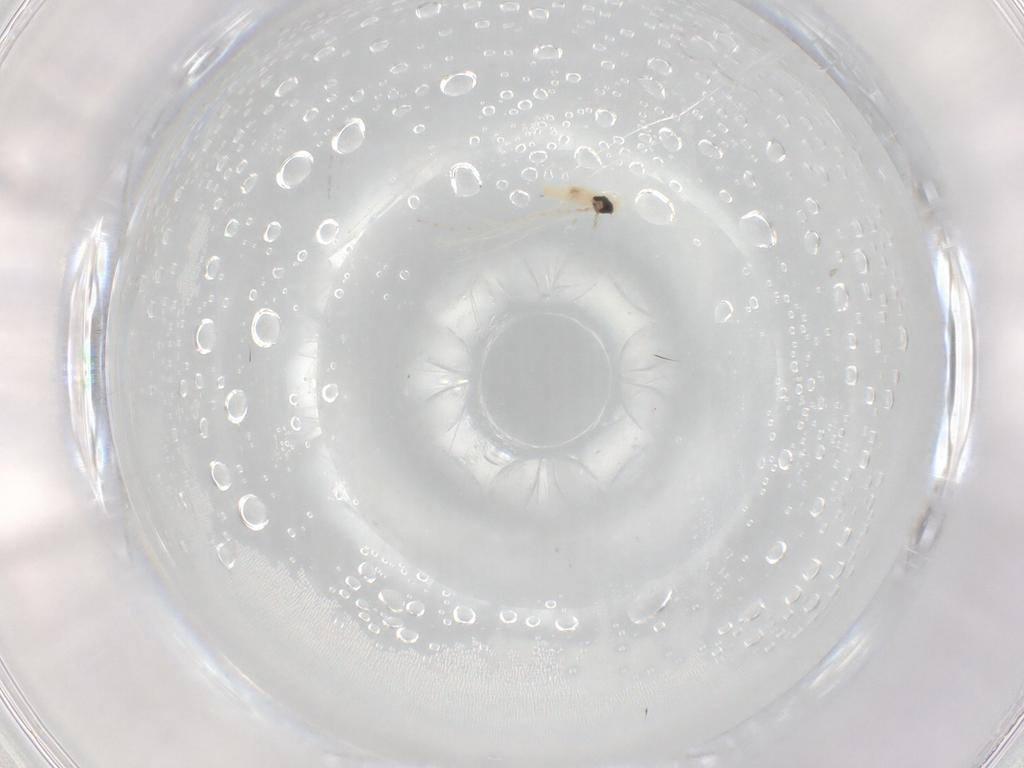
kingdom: Animalia
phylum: Arthropoda
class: Insecta
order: Diptera
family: Cecidomyiidae
